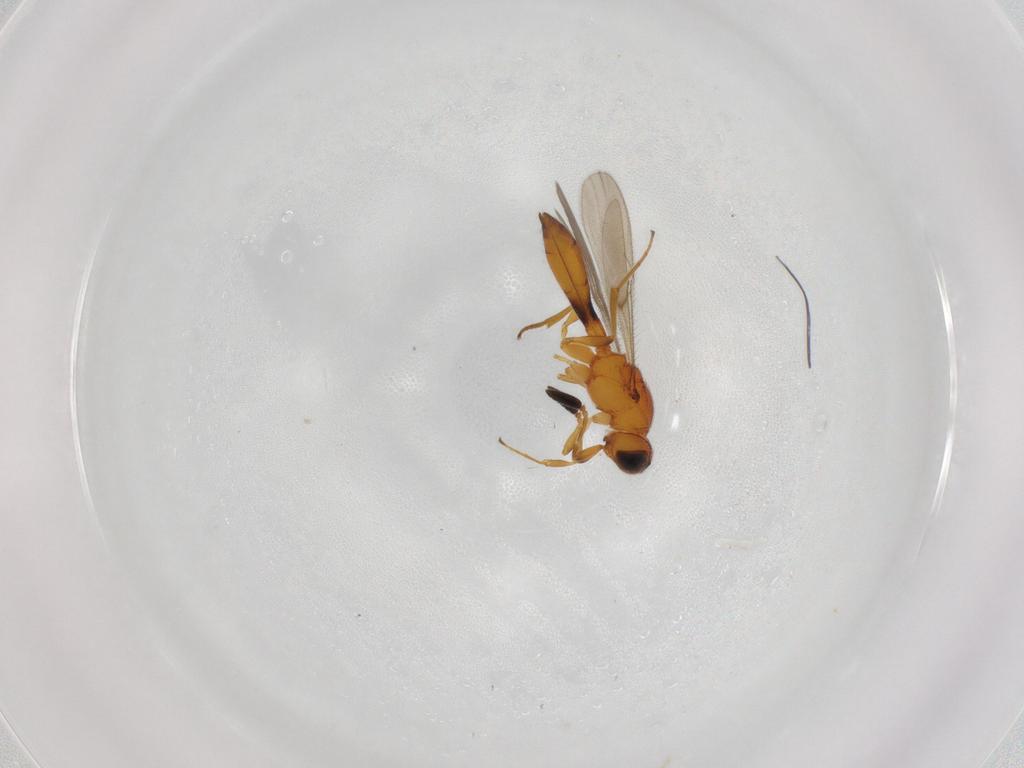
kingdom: Animalia
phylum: Arthropoda
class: Insecta
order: Hymenoptera
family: Scelionidae
